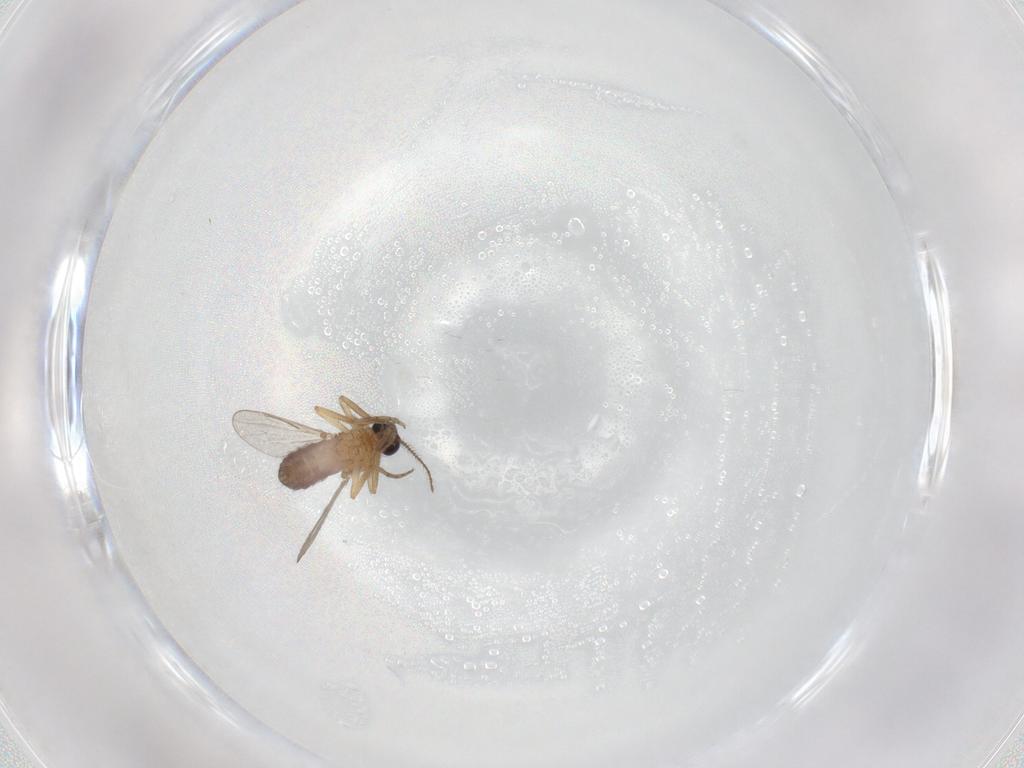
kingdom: Animalia
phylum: Arthropoda
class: Insecta
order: Diptera
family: Chironomidae
